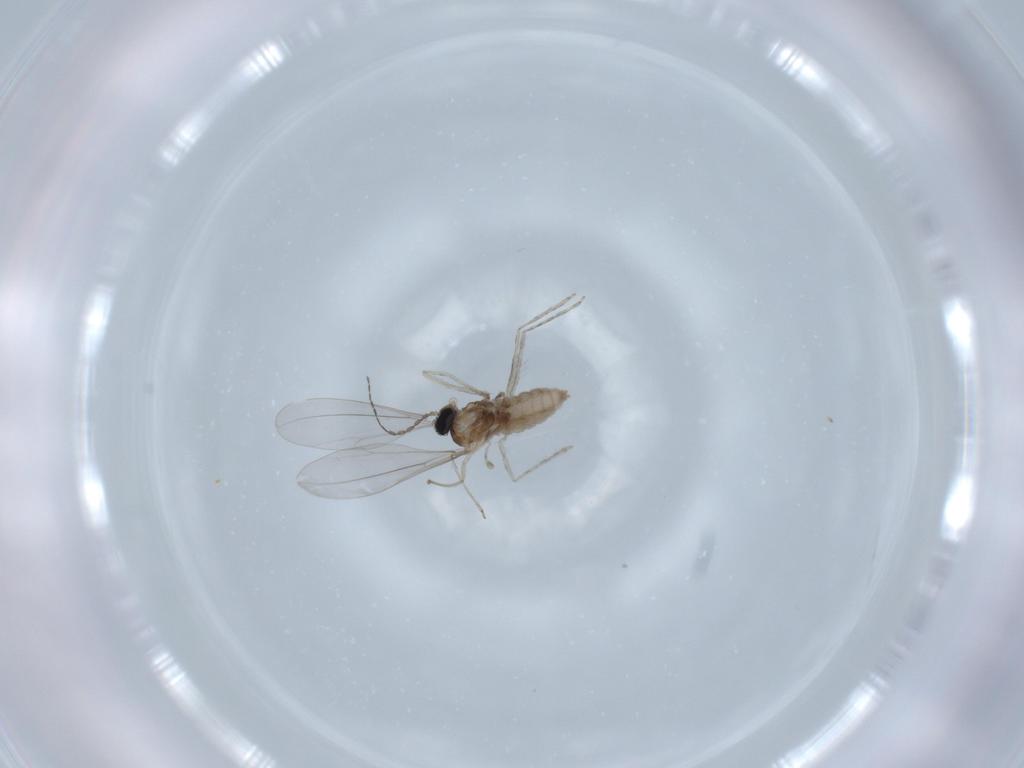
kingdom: Animalia
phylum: Arthropoda
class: Insecta
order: Diptera
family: Cecidomyiidae
